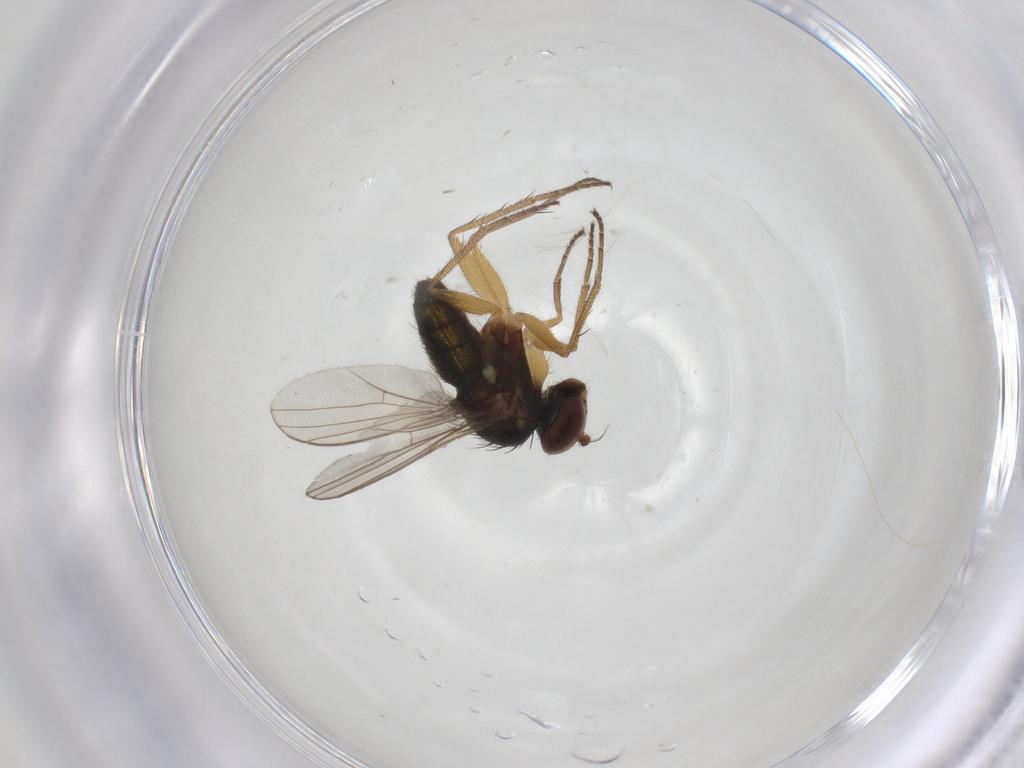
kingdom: Animalia
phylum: Arthropoda
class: Insecta
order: Diptera
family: Dolichopodidae
